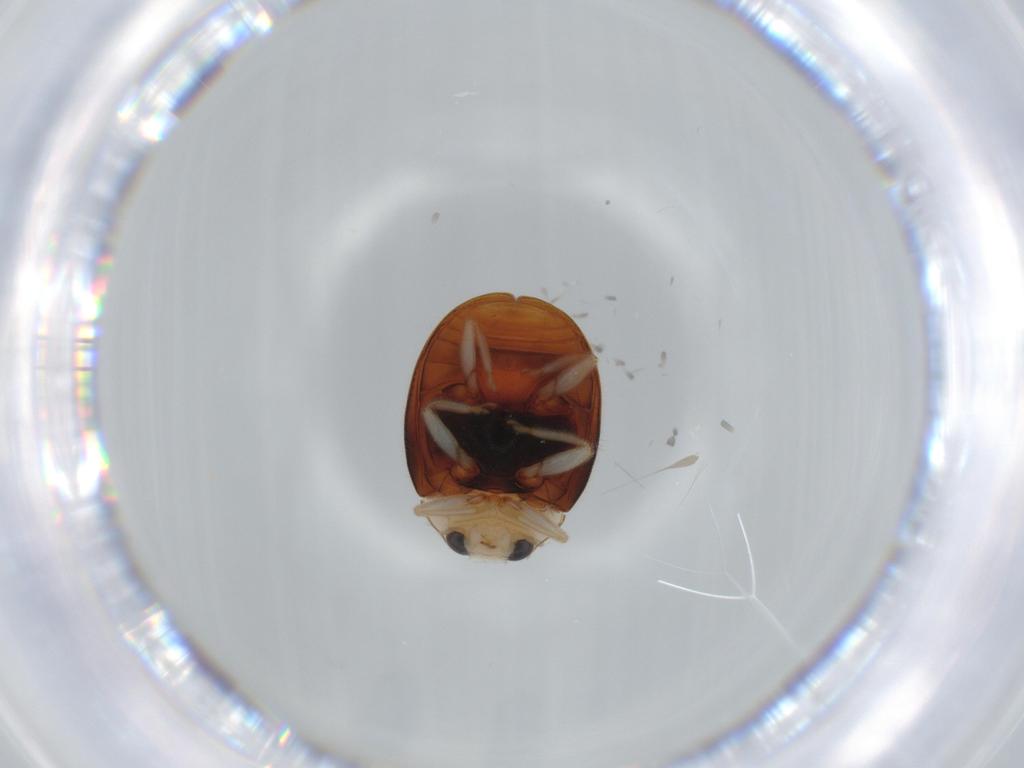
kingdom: Animalia
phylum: Arthropoda
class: Insecta
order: Coleoptera
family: Coccinellidae
